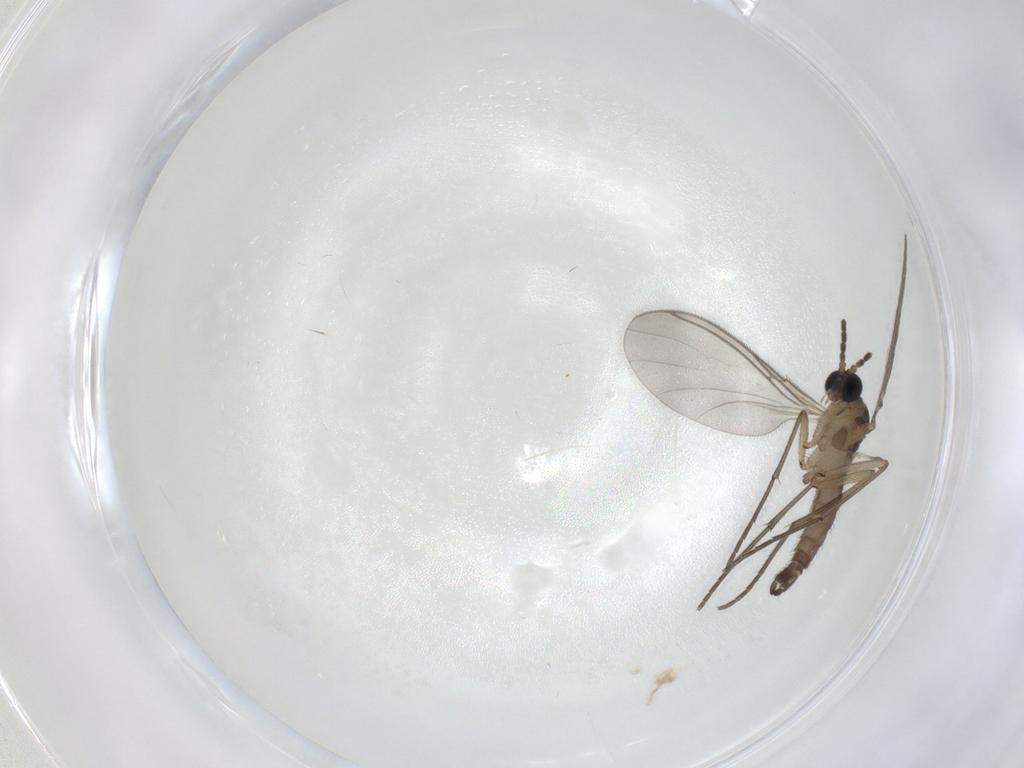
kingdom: Animalia
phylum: Arthropoda
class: Insecta
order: Diptera
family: Sciaridae
